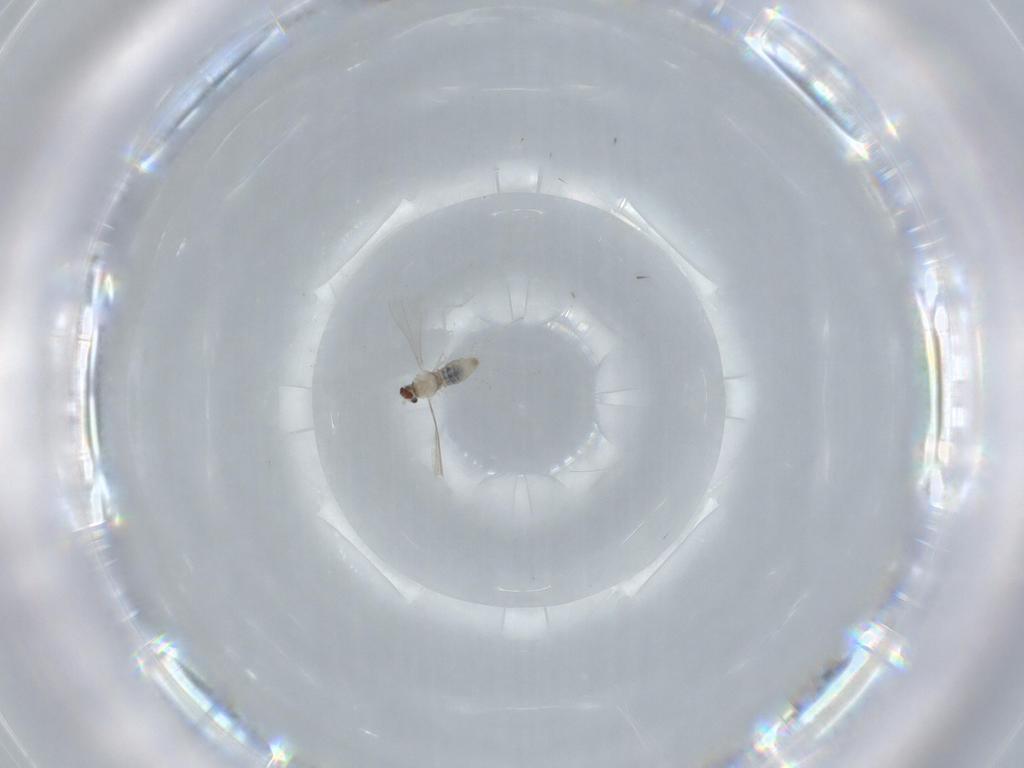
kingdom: Animalia
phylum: Arthropoda
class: Insecta
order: Diptera
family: Cecidomyiidae
